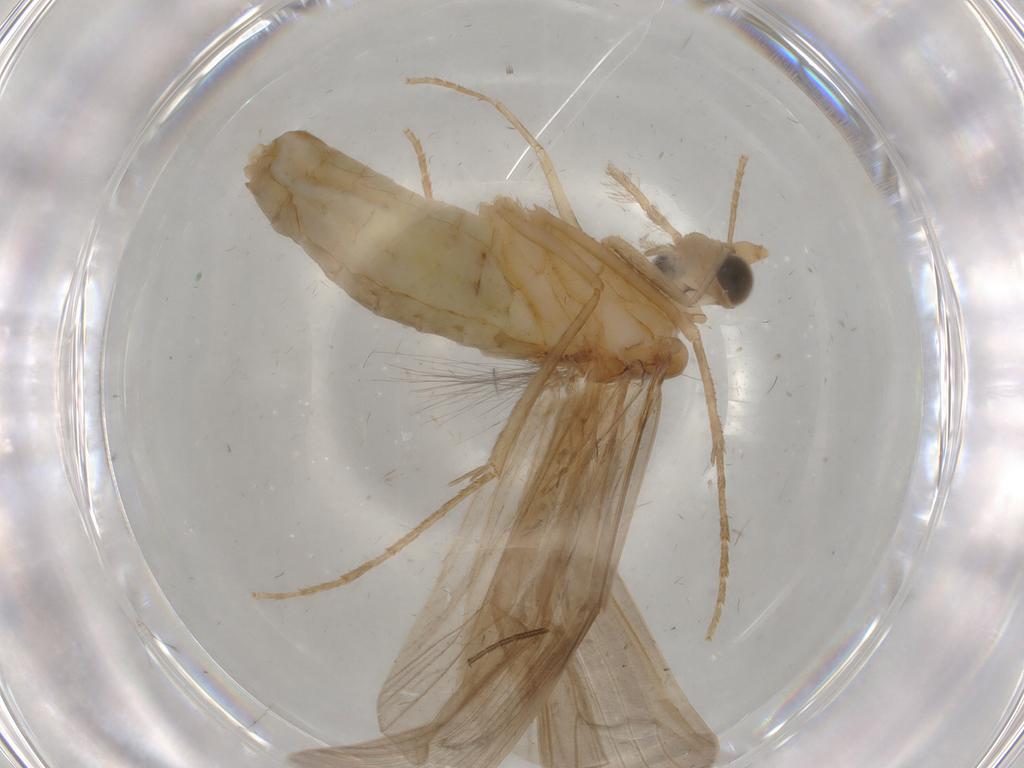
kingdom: Animalia
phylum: Arthropoda
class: Insecta
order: Trichoptera
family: Leptoceridae
